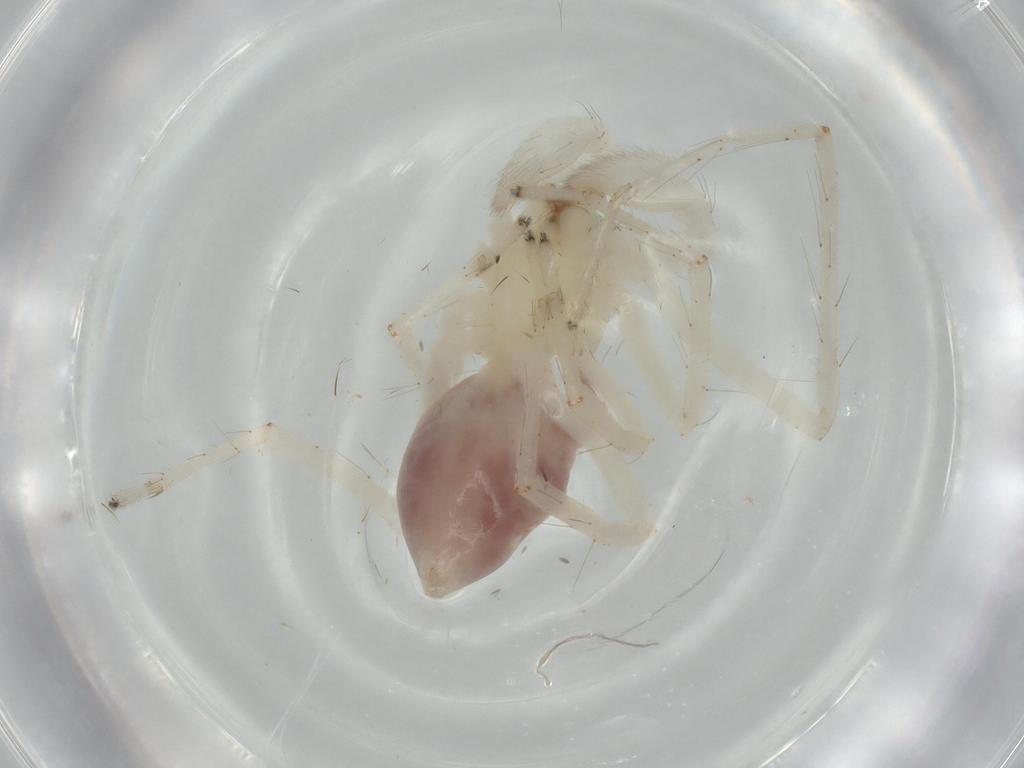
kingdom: Animalia
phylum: Arthropoda
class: Arachnida
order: Araneae
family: Anyphaenidae
